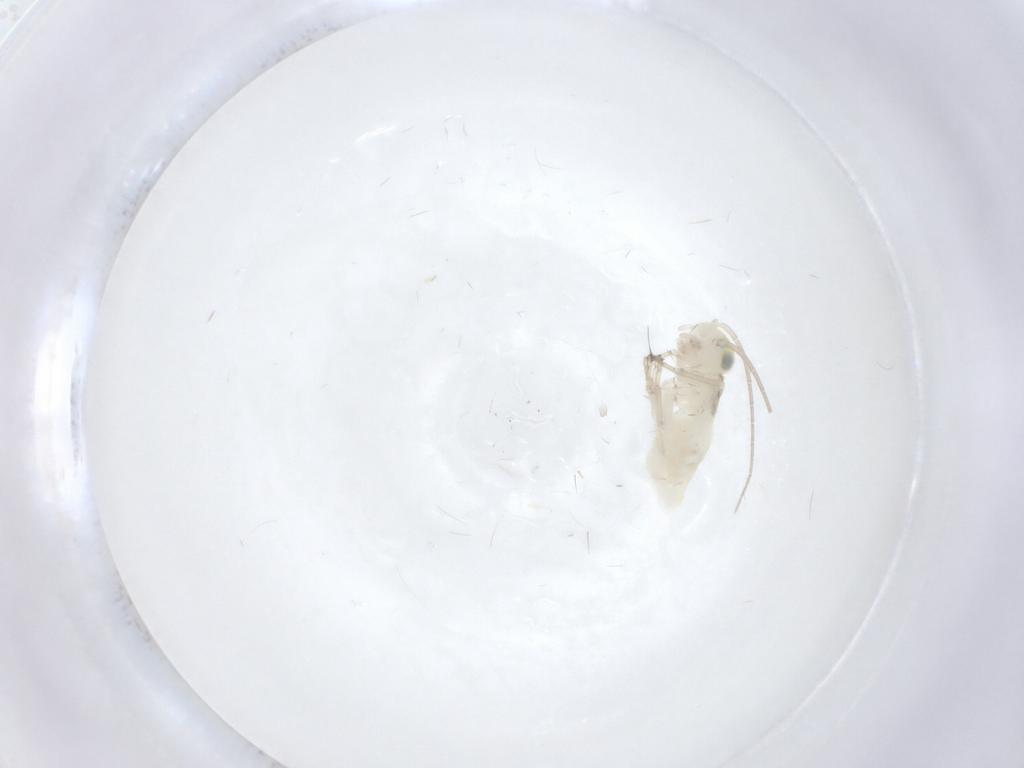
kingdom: Animalia
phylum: Arthropoda
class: Insecta
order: Psocodea
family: Caeciliusidae
